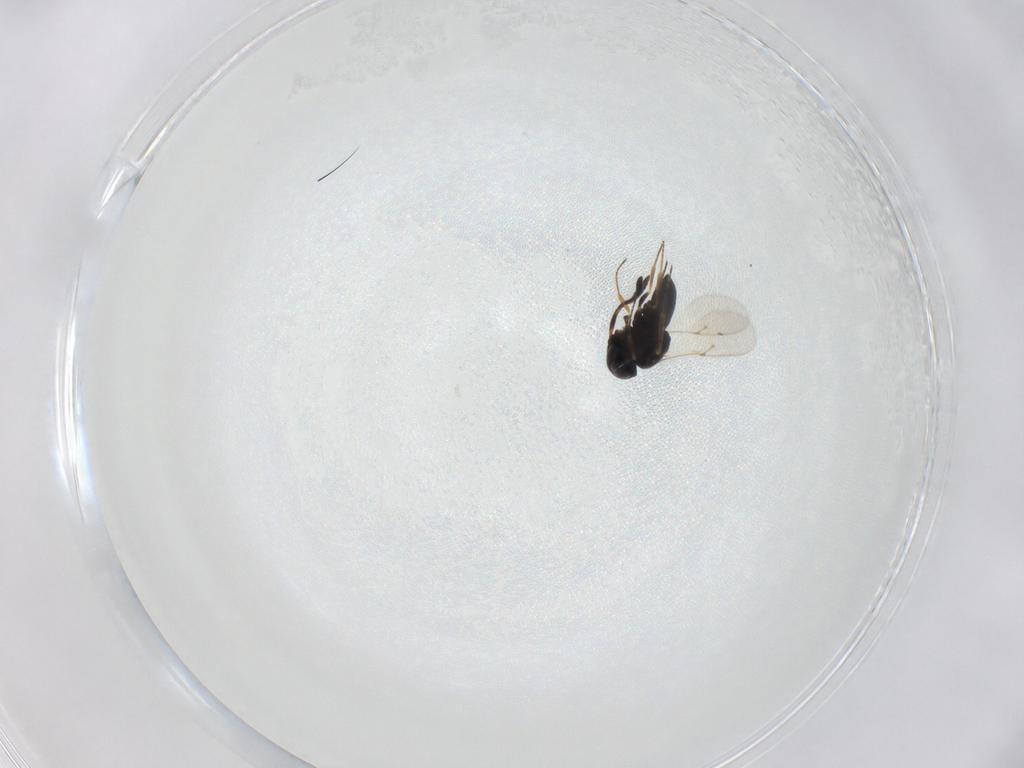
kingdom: Animalia
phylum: Arthropoda
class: Insecta
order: Hymenoptera
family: Scelionidae
